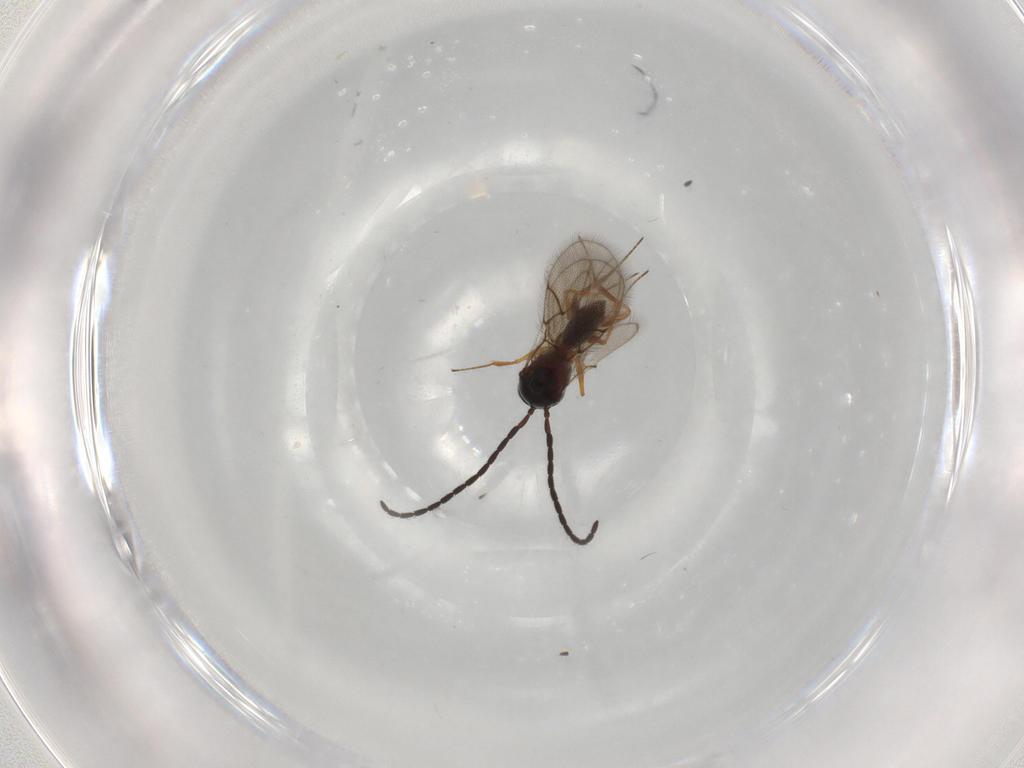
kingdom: Animalia
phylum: Arthropoda
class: Insecta
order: Hymenoptera
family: Figitidae
